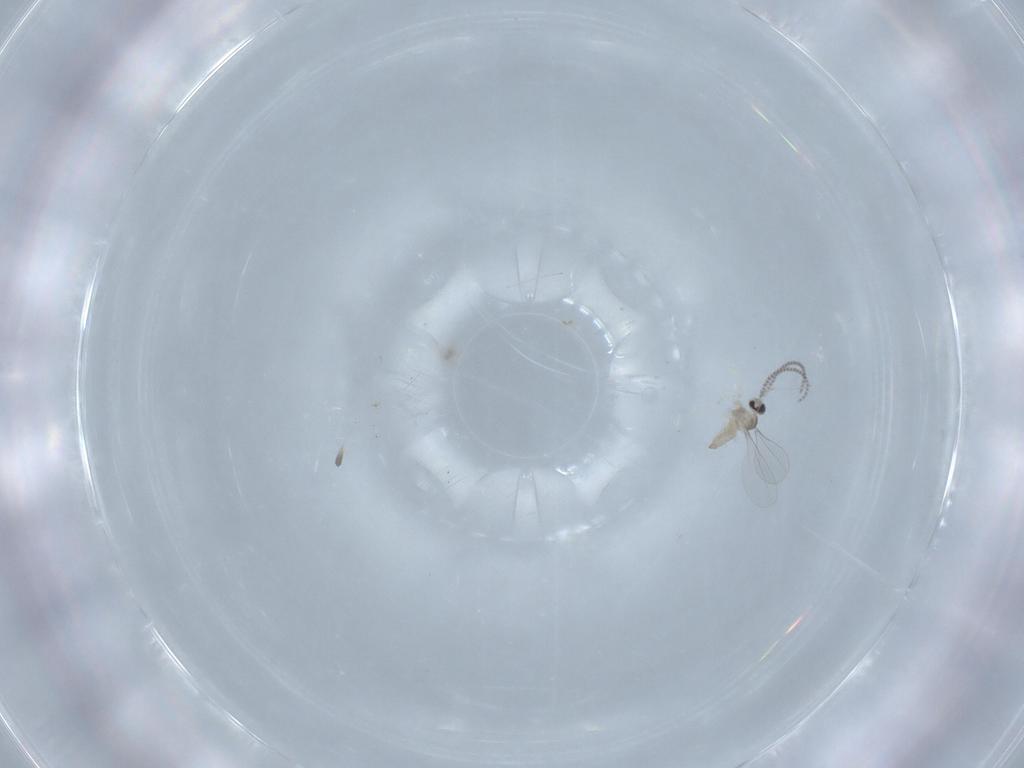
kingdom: Animalia
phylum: Arthropoda
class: Insecta
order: Diptera
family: Cecidomyiidae
